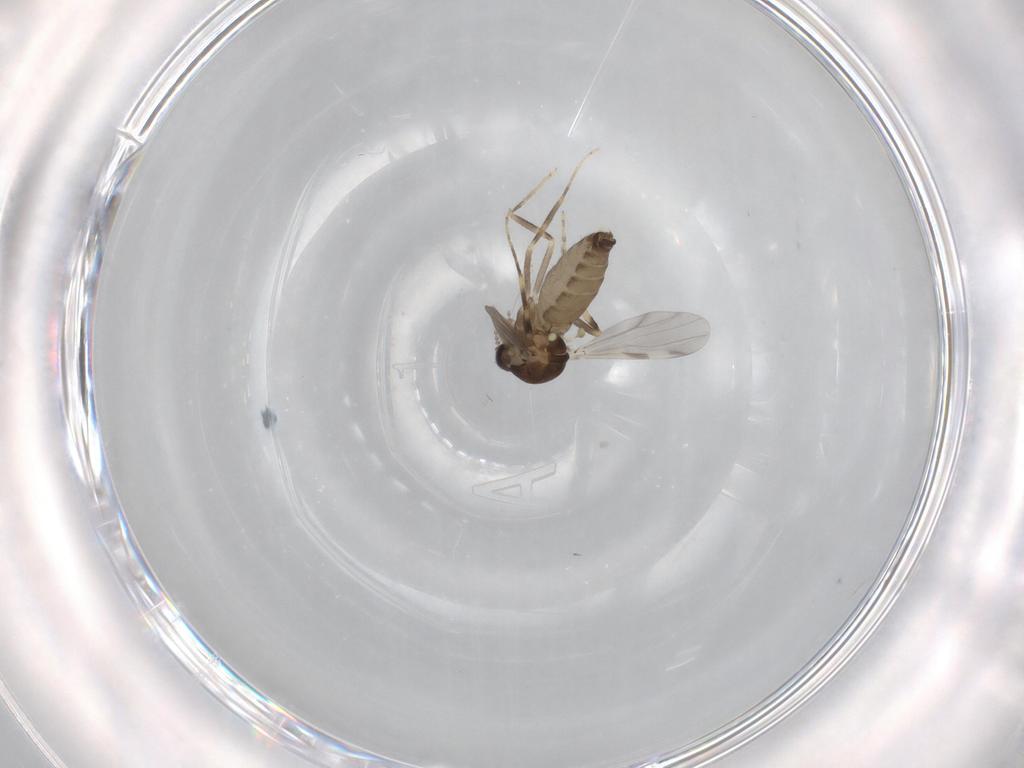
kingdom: Animalia
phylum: Arthropoda
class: Insecta
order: Diptera
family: Ceratopogonidae
